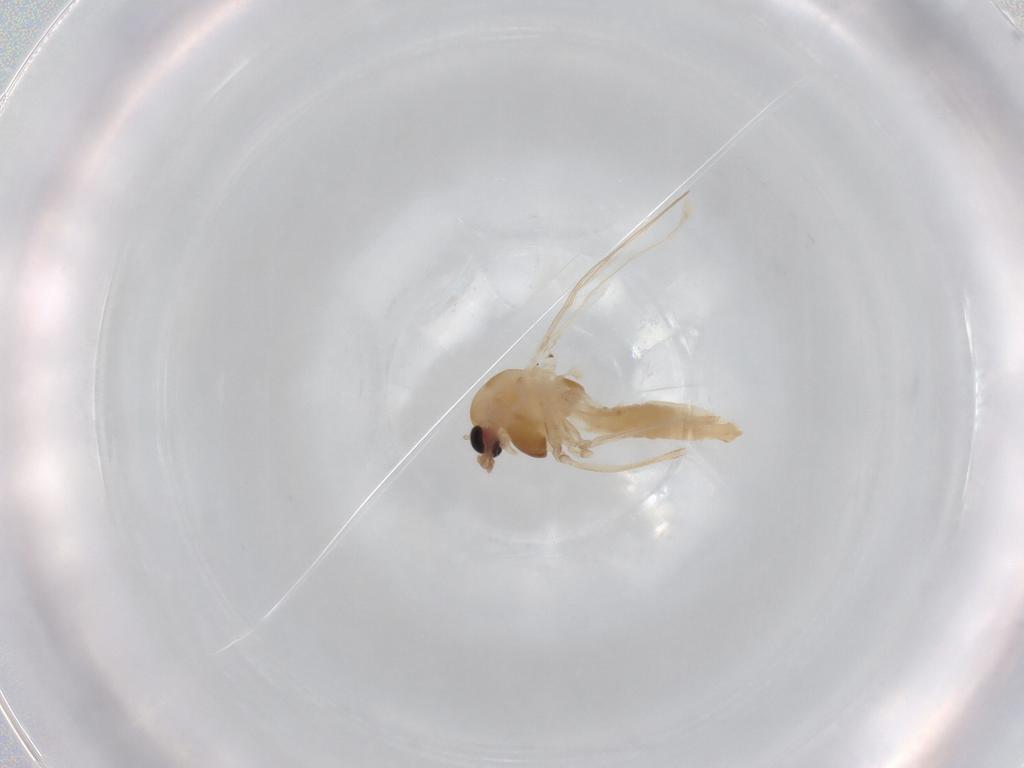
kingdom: Animalia
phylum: Arthropoda
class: Insecta
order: Diptera
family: Chironomidae
